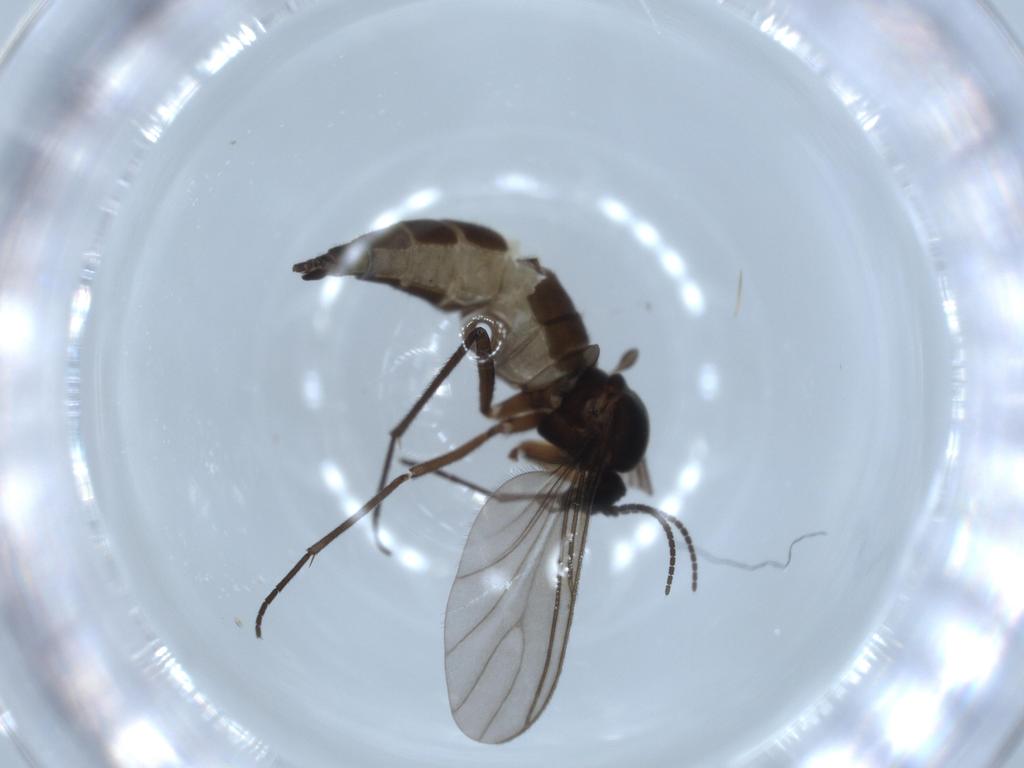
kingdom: Animalia
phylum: Arthropoda
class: Insecta
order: Diptera
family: Sciaridae
